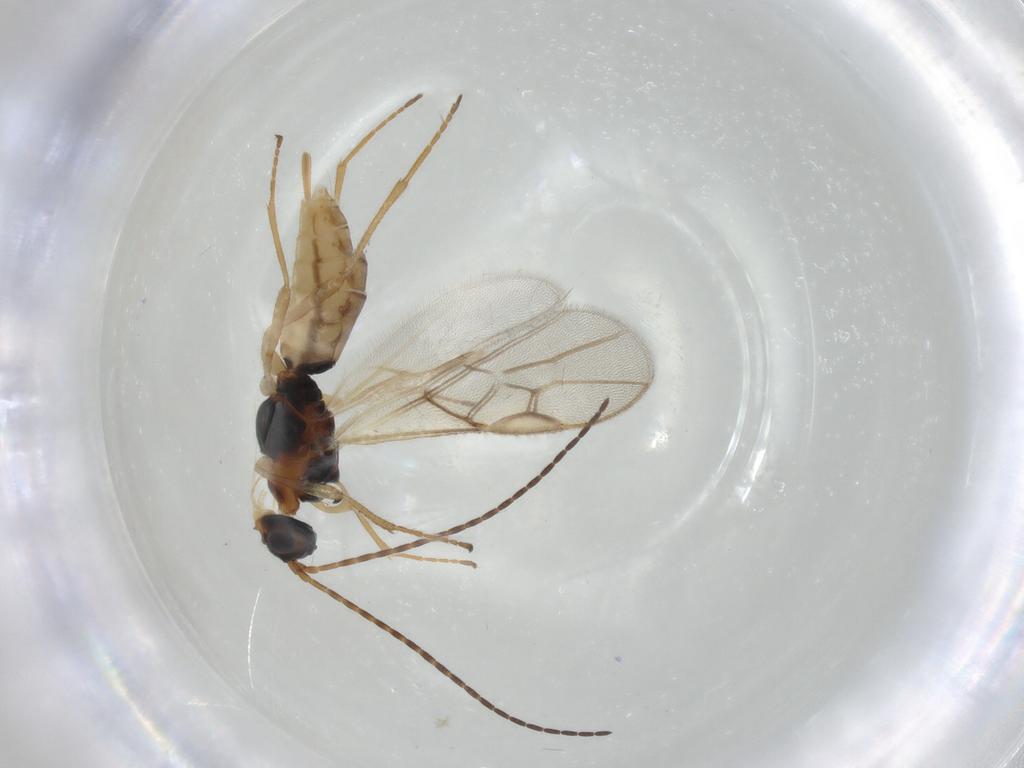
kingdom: Animalia
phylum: Arthropoda
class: Insecta
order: Hymenoptera
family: Braconidae
